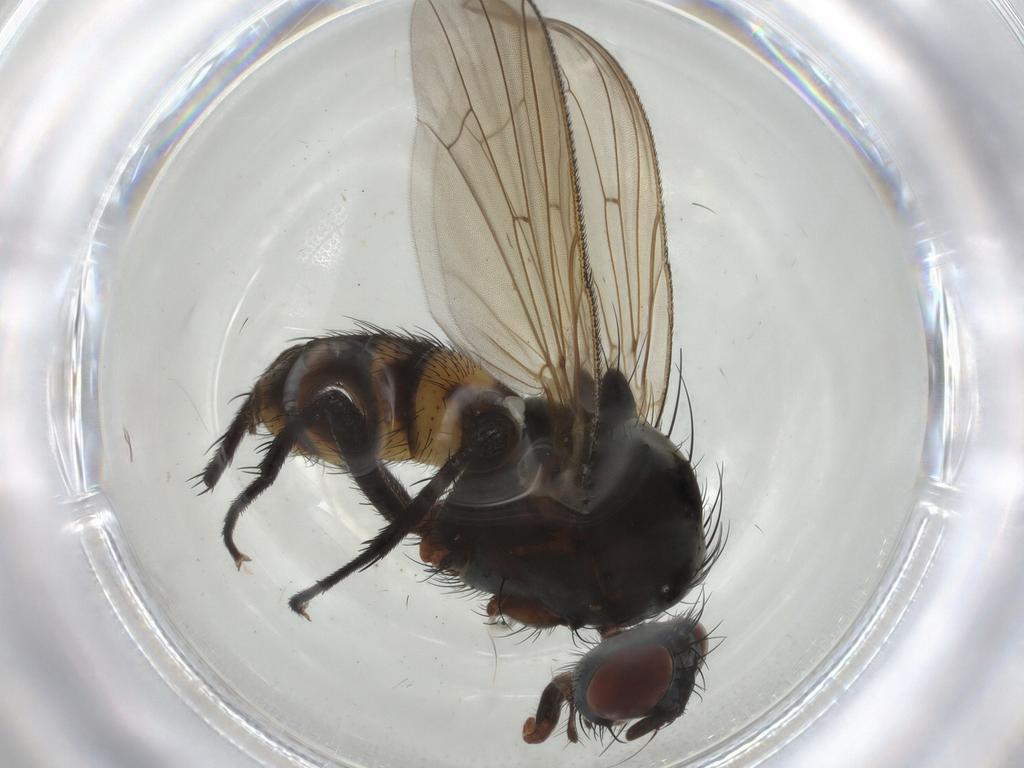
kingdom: Animalia
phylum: Arthropoda
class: Insecta
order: Diptera
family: Anthomyiidae
